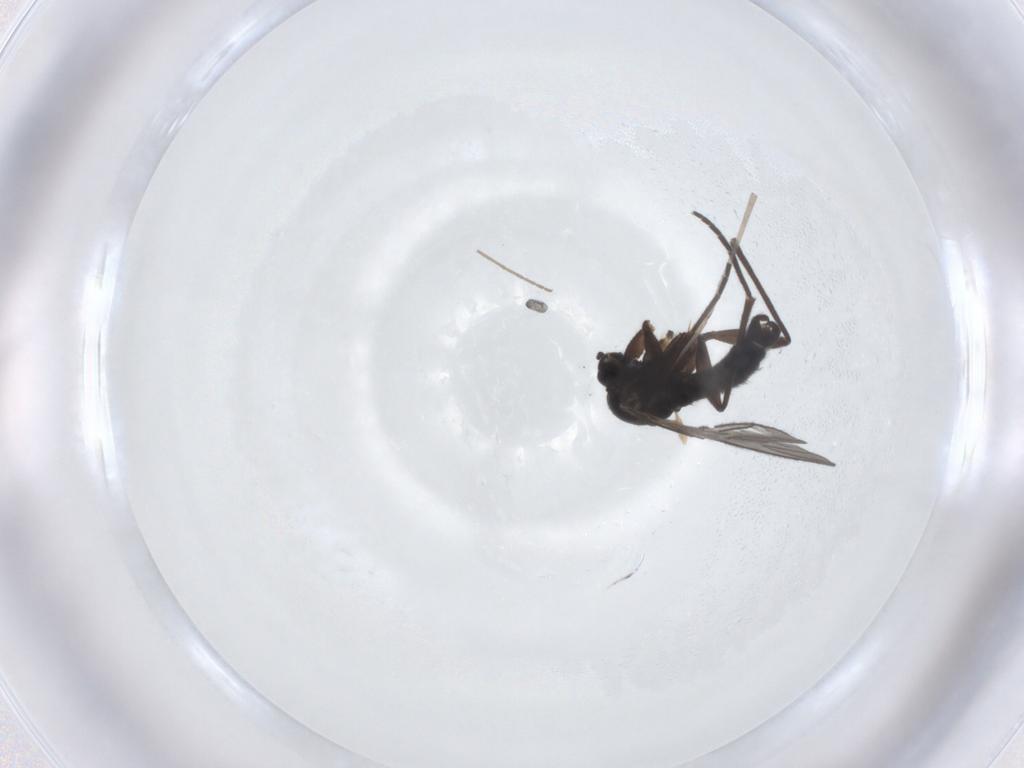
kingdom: Animalia
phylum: Arthropoda
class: Insecta
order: Diptera
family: Sciaridae
